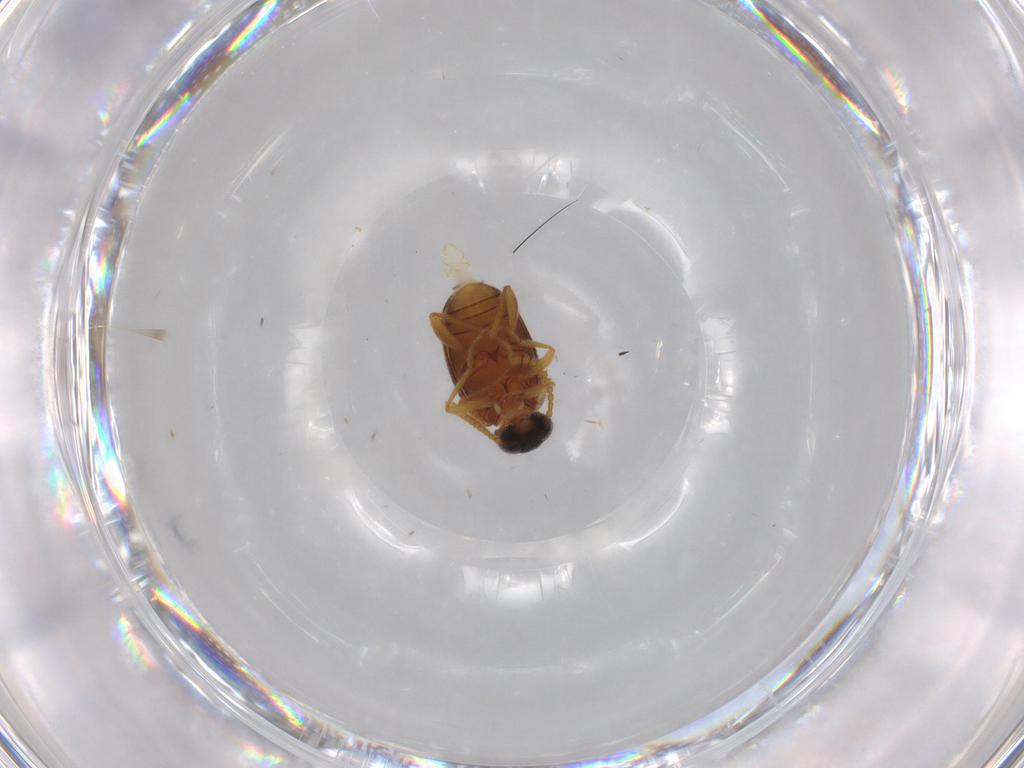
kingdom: Animalia
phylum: Arthropoda
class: Insecta
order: Coleoptera
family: Aderidae
